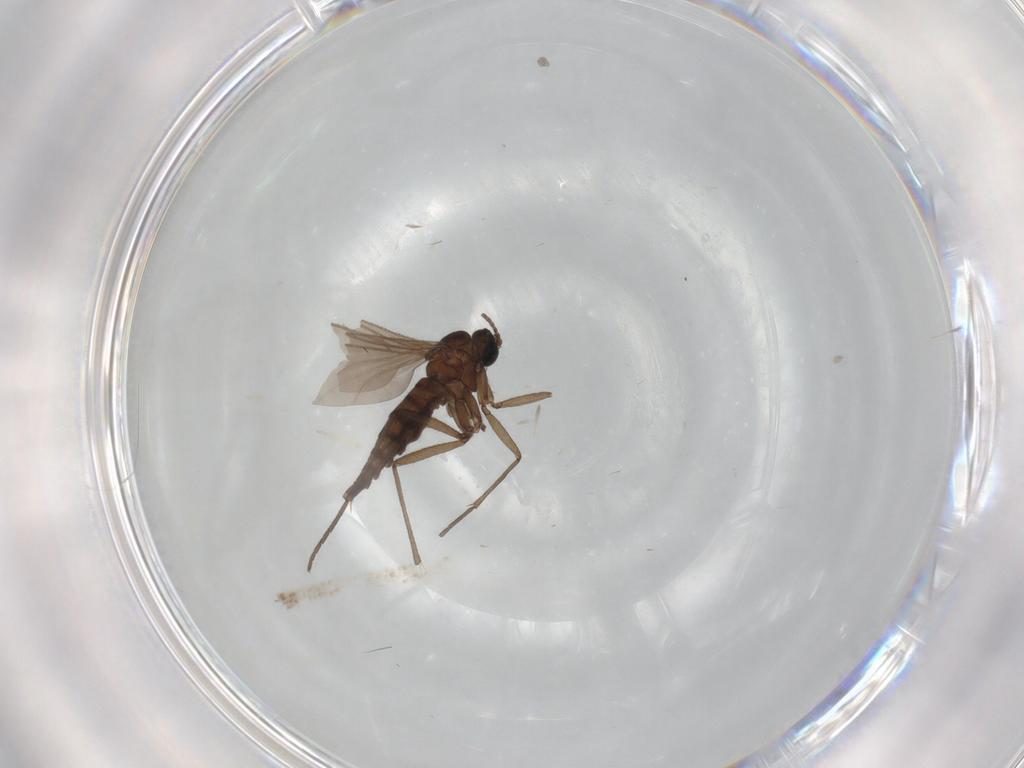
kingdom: Animalia
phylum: Arthropoda
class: Insecta
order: Diptera
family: Sciaridae
